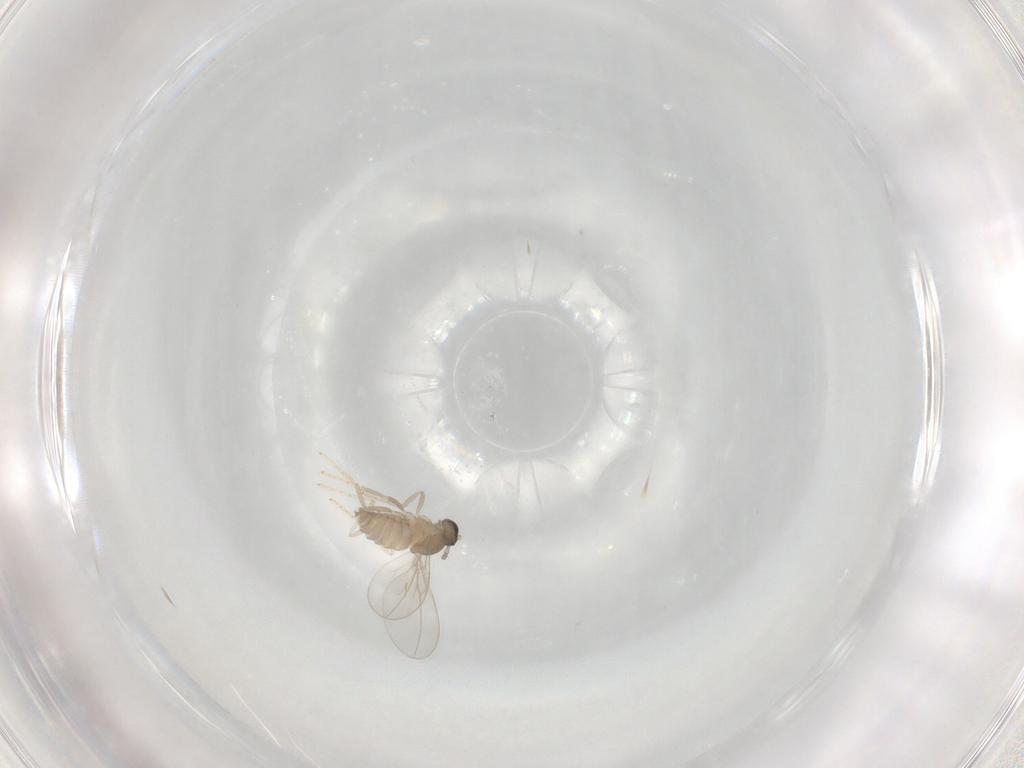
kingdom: Animalia
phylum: Arthropoda
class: Insecta
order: Diptera
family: Cecidomyiidae
